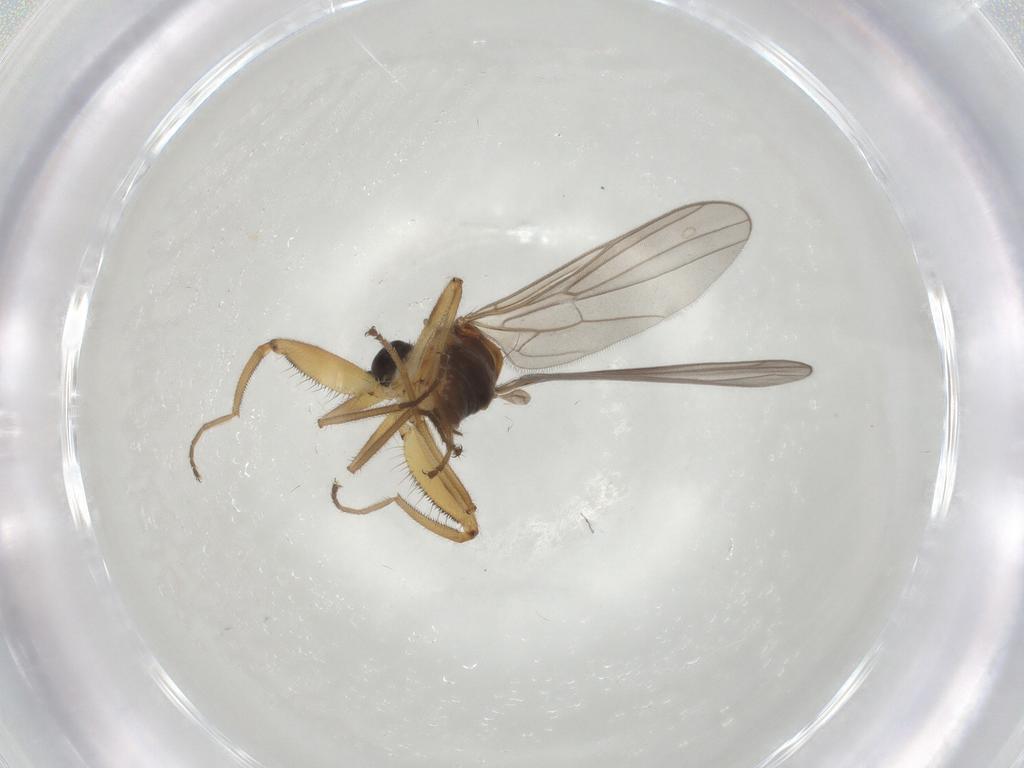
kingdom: Animalia
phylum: Arthropoda
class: Insecta
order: Diptera
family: Hybotidae
